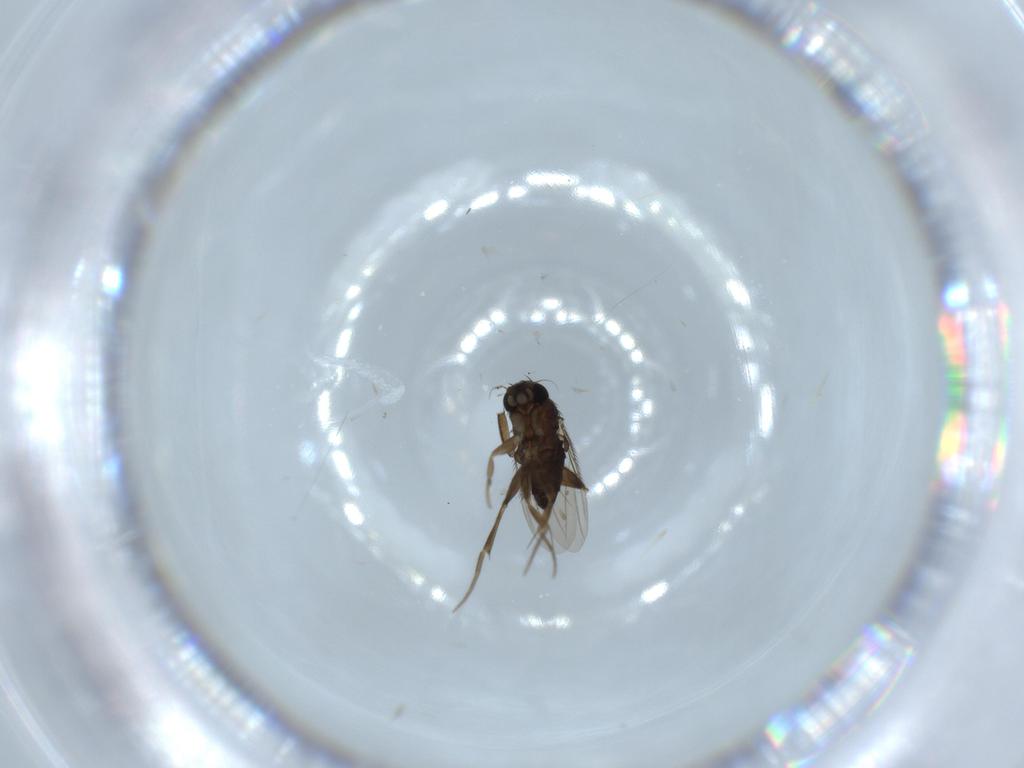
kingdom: Animalia
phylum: Arthropoda
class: Insecta
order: Diptera
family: Phoridae
